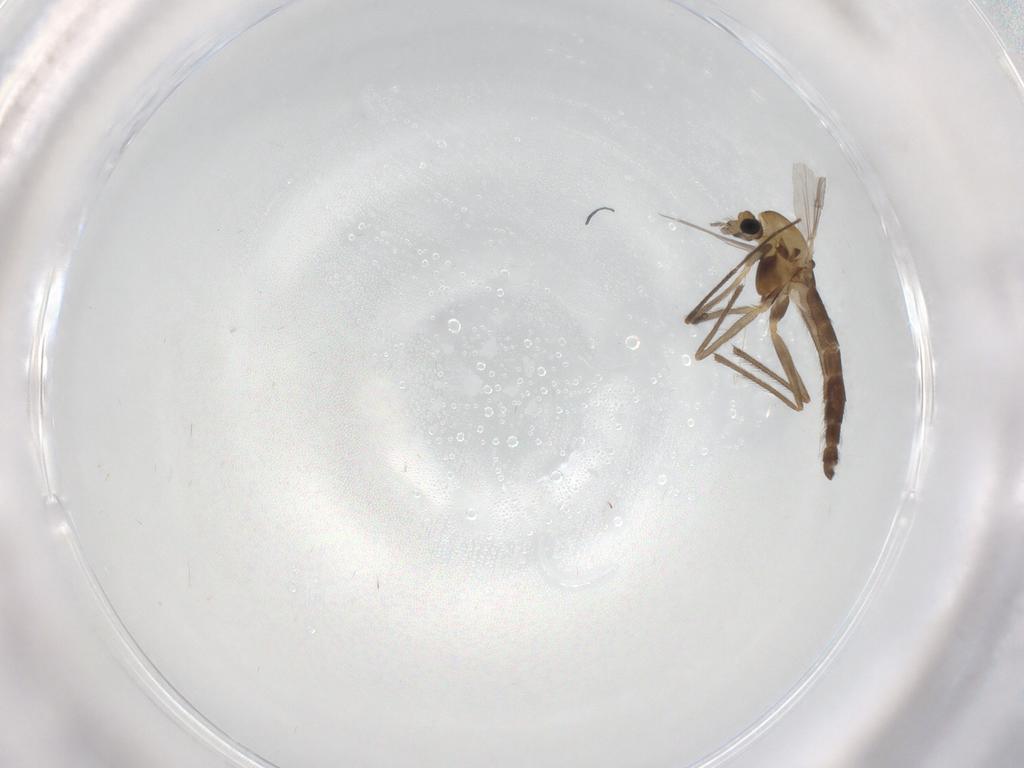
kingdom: Animalia
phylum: Arthropoda
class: Insecta
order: Diptera
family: Chironomidae
